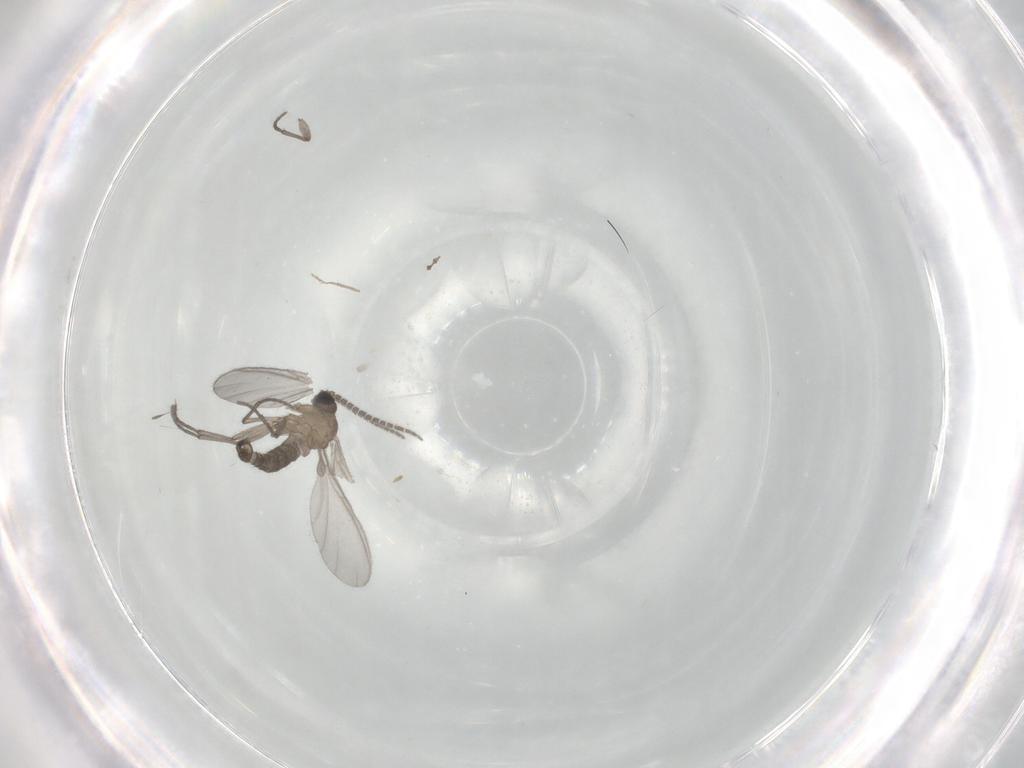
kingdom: Animalia
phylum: Arthropoda
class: Insecta
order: Diptera
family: Sciaridae
